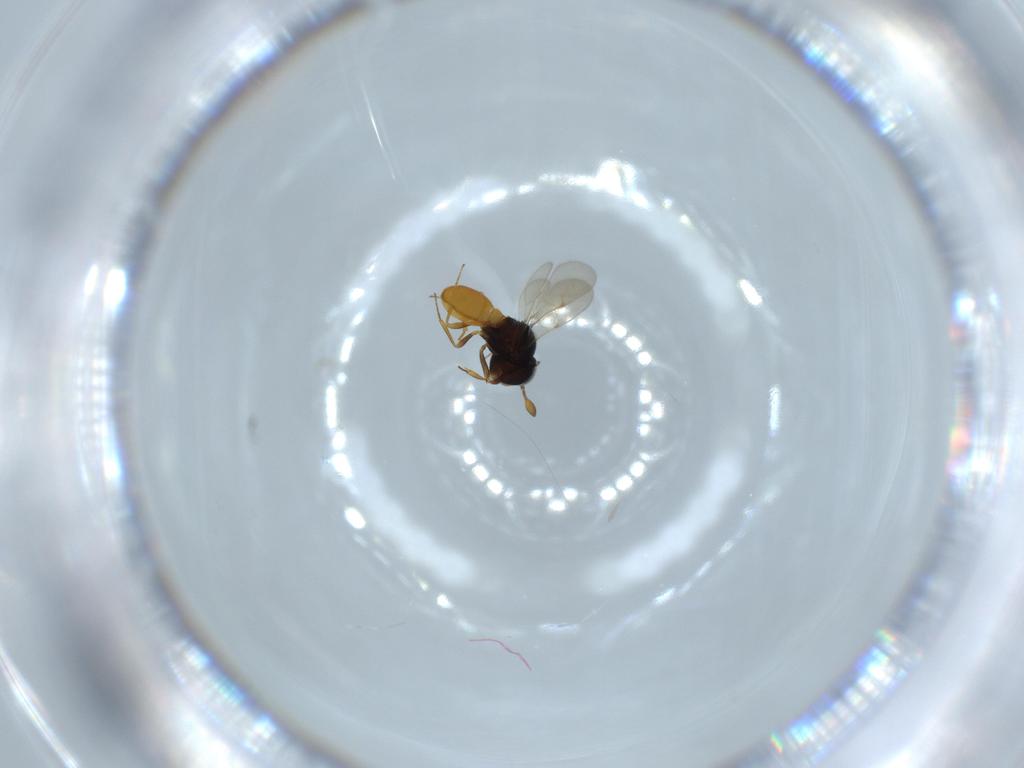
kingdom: Animalia
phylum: Arthropoda
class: Insecta
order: Hymenoptera
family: Scelionidae
